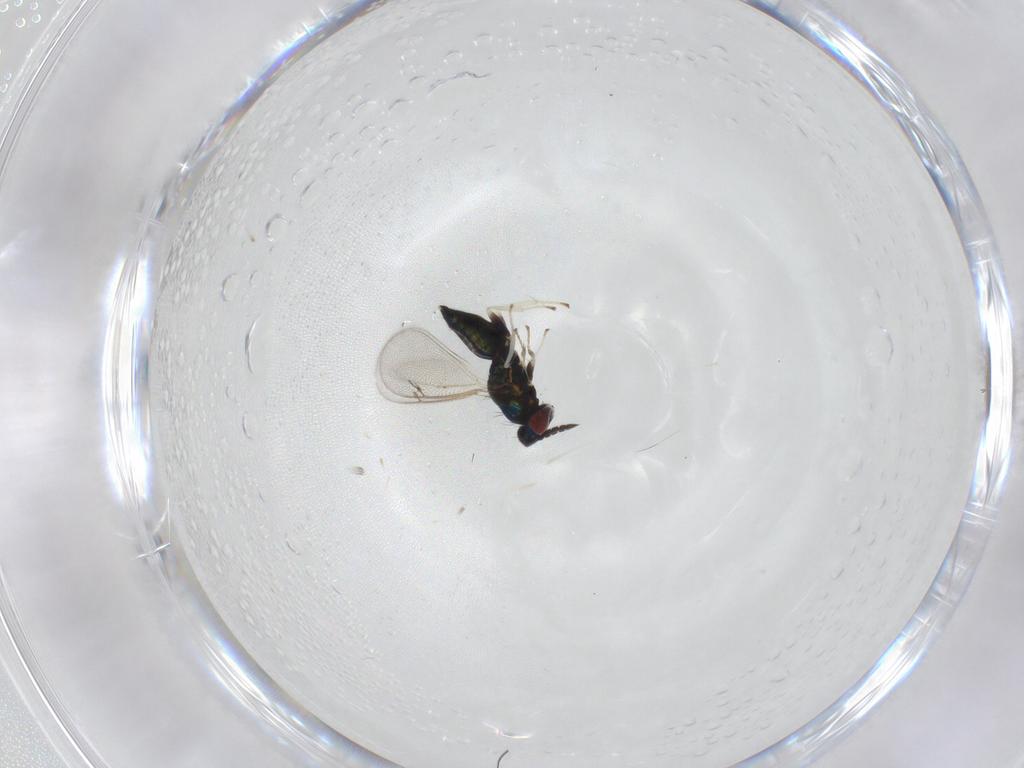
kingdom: Animalia
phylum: Arthropoda
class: Insecta
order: Hymenoptera
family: Eulophidae
